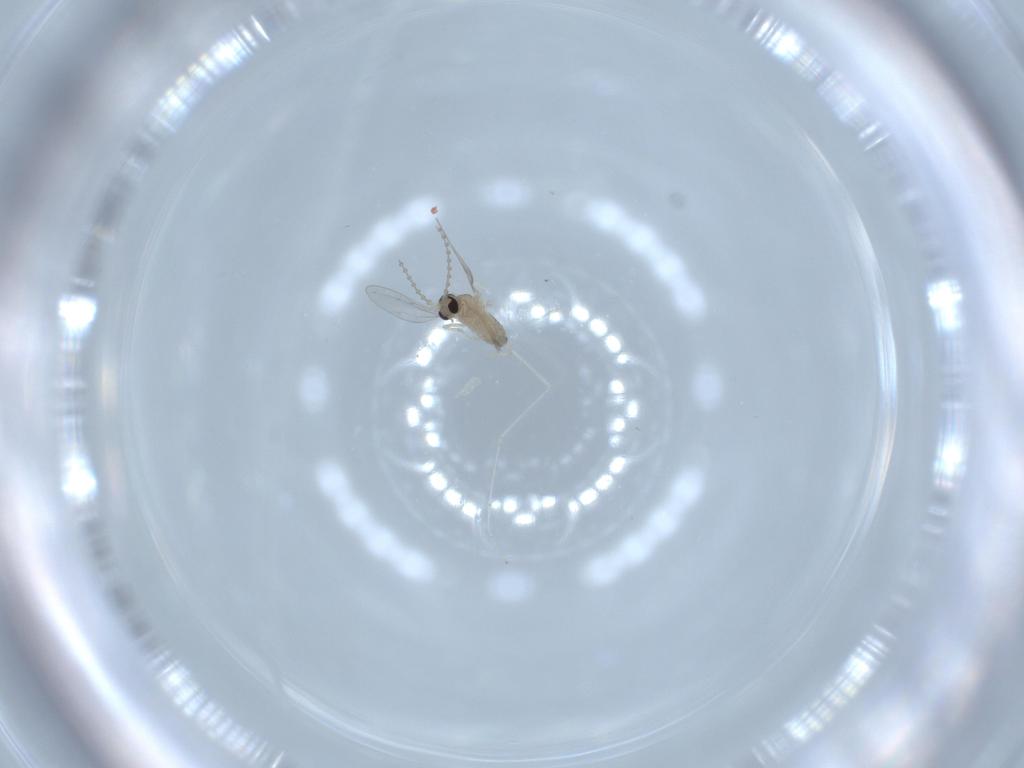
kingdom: Animalia
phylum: Arthropoda
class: Insecta
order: Diptera
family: Cecidomyiidae
